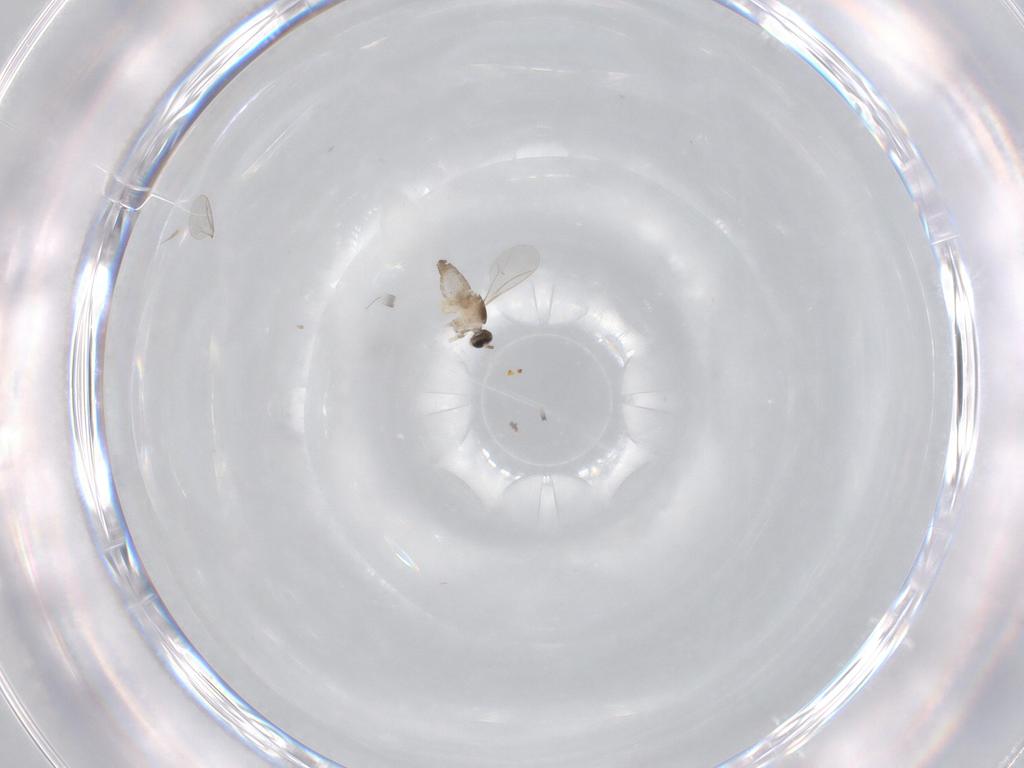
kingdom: Animalia
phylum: Arthropoda
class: Insecta
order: Diptera
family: Cecidomyiidae
